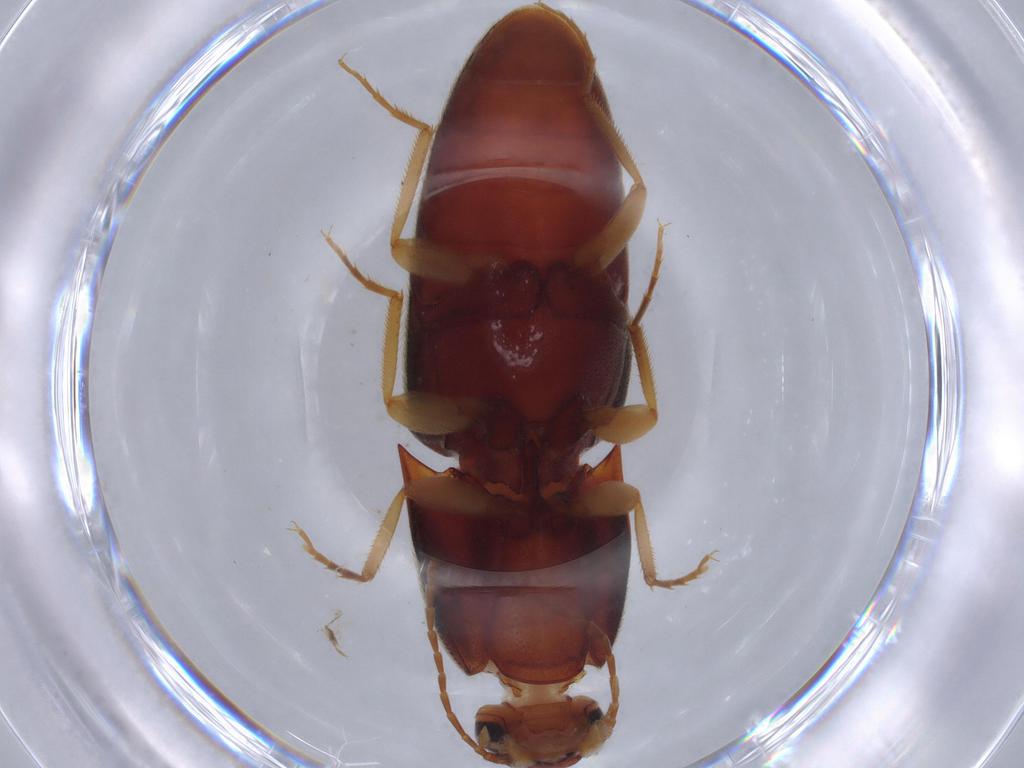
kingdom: Animalia
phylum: Arthropoda
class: Insecta
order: Coleoptera
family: Elateridae
